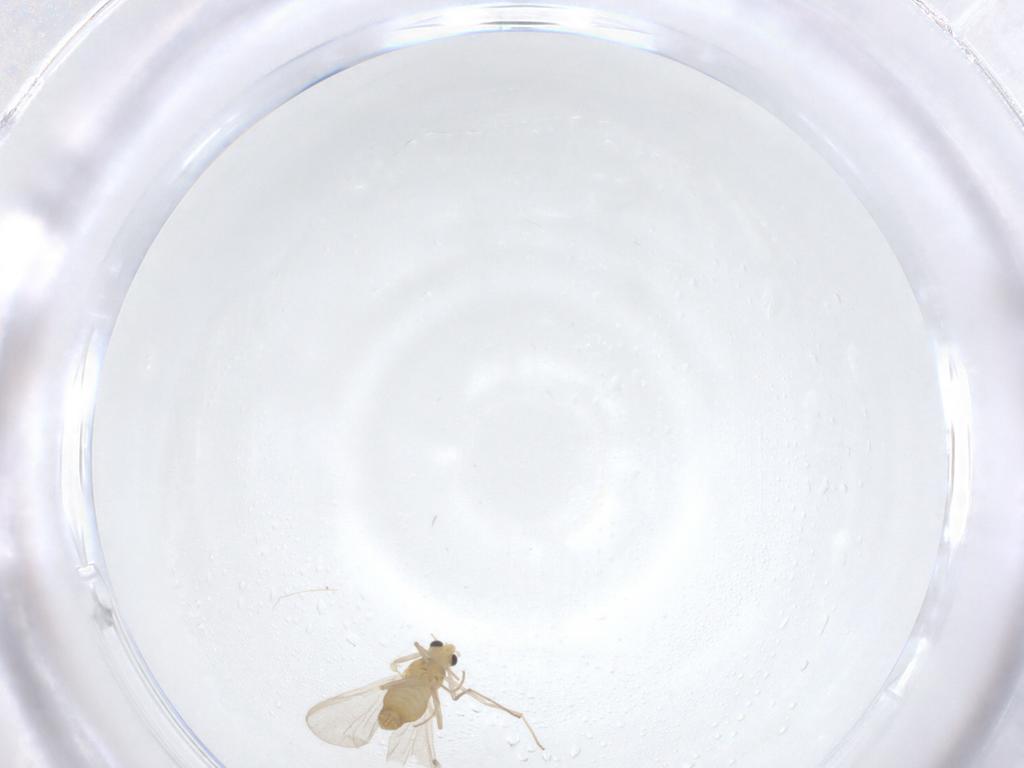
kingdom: Animalia
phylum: Arthropoda
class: Insecta
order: Diptera
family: Chironomidae
